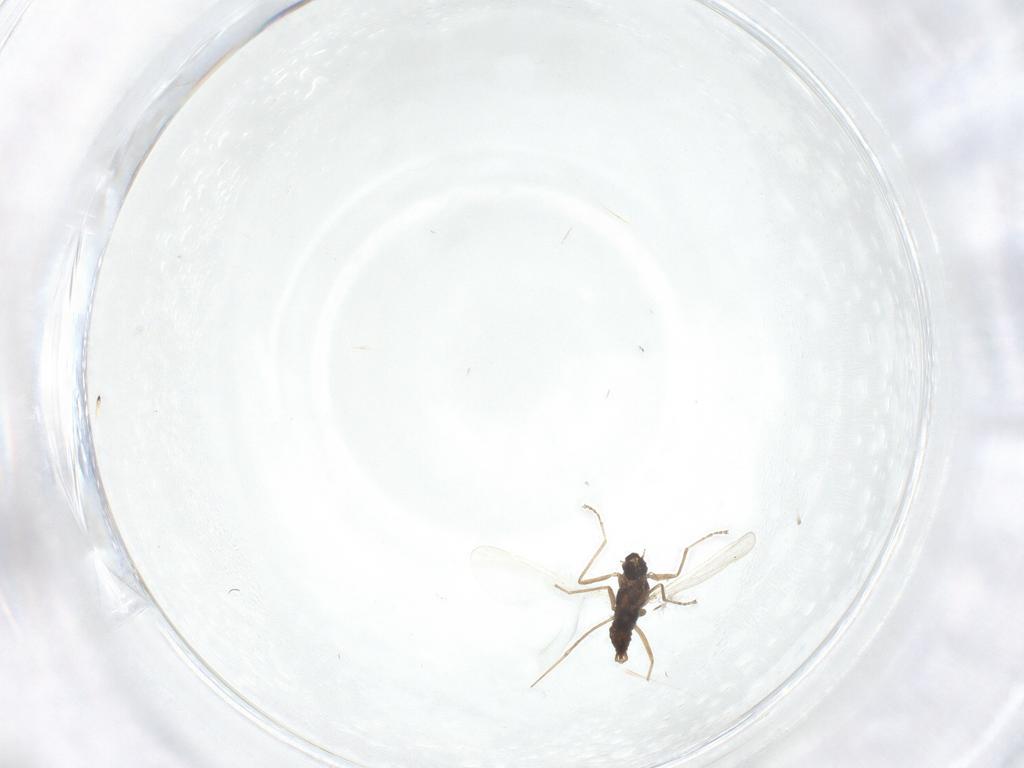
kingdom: Animalia
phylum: Arthropoda
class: Insecta
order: Diptera
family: Cecidomyiidae
